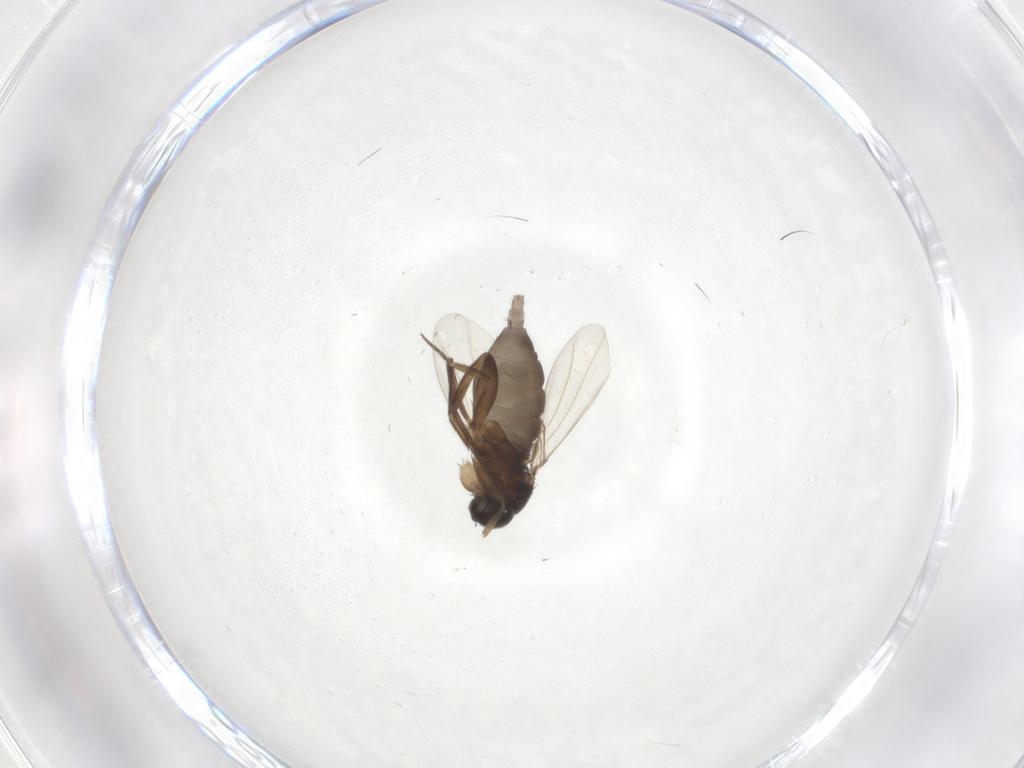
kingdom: Animalia
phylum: Arthropoda
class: Insecta
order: Diptera
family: Phoridae
